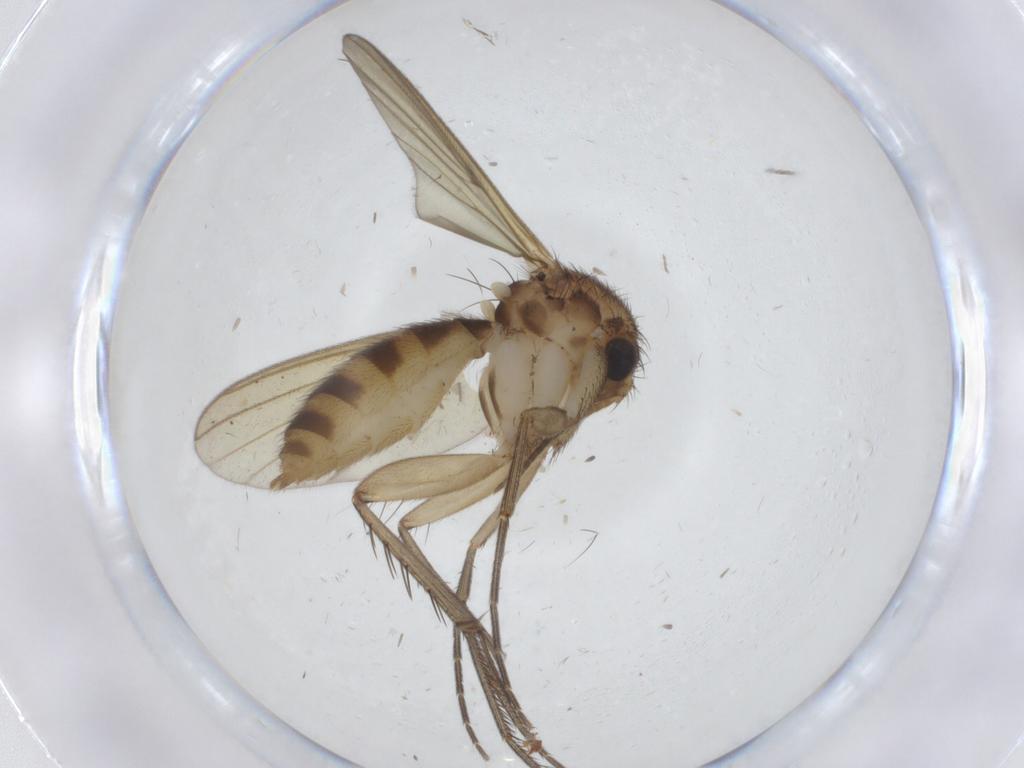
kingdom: Animalia
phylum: Arthropoda
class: Insecta
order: Diptera
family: Mycetophilidae
